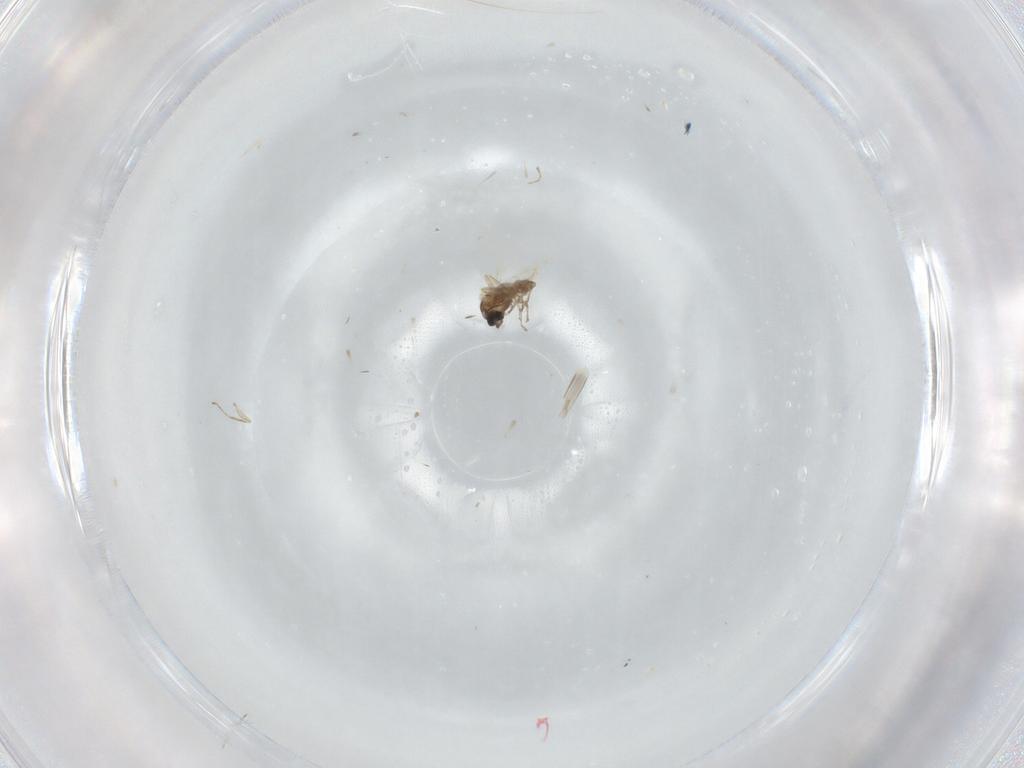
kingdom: Animalia
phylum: Arthropoda
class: Insecta
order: Diptera
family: Cecidomyiidae
